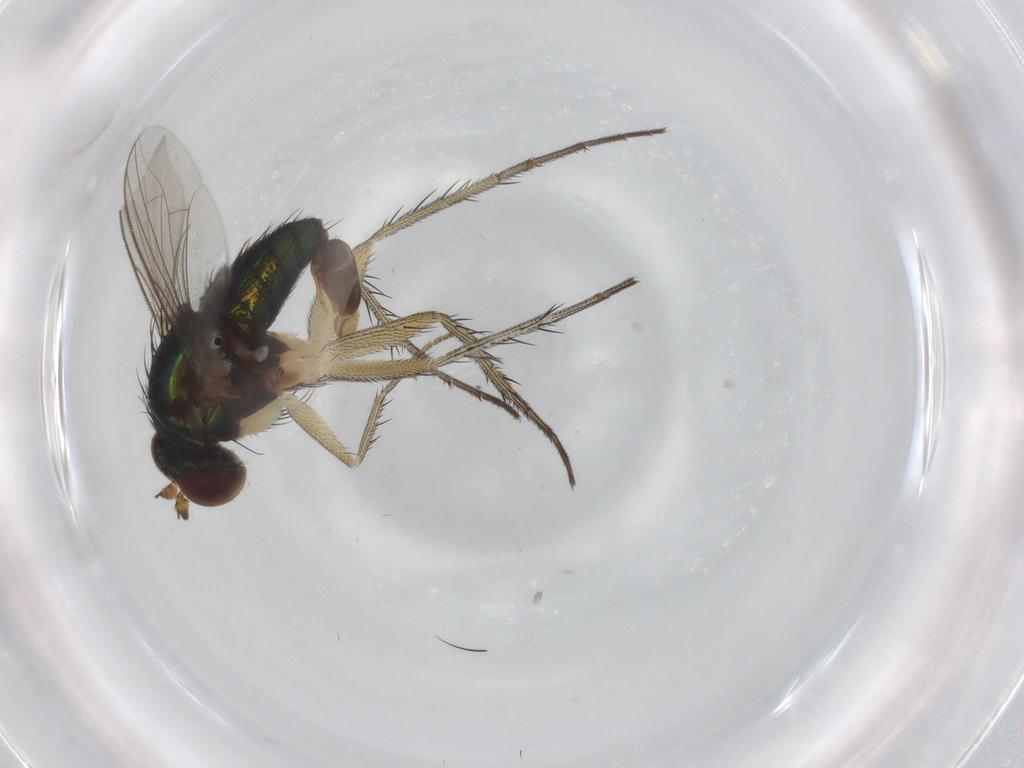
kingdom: Animalia
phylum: Arthropoda
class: Insecta
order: Diptera
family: Dolichopodidae
